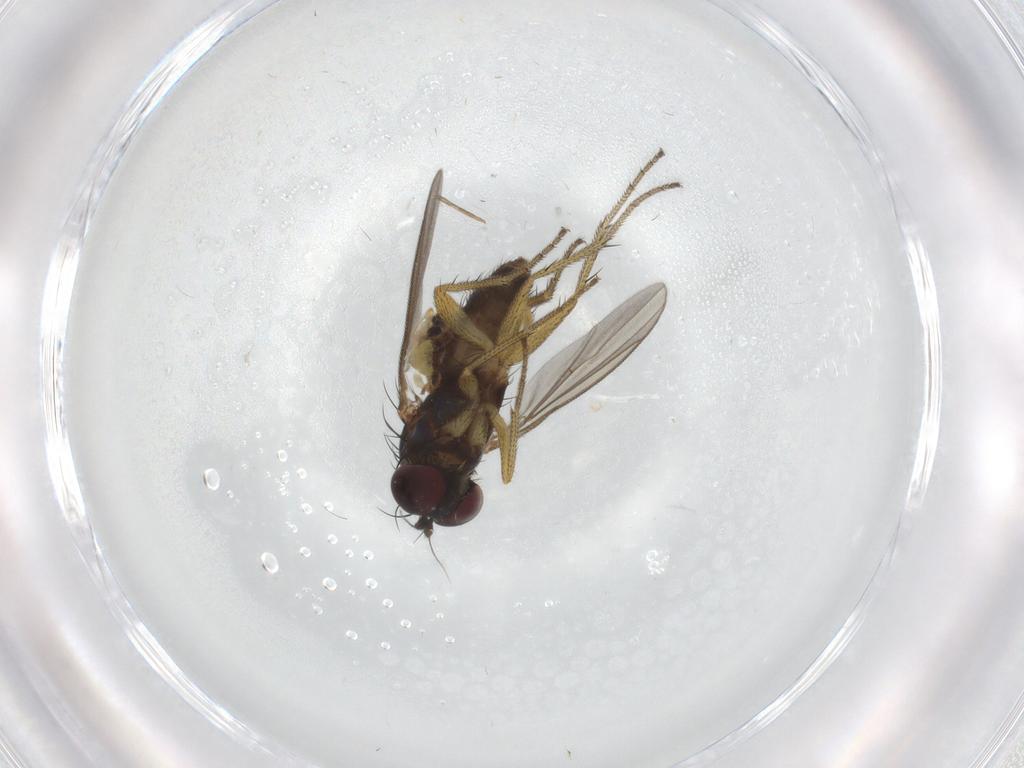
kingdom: Animalia
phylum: Arthropoda
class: Insecta
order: Diptera
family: Dolichopodidae
